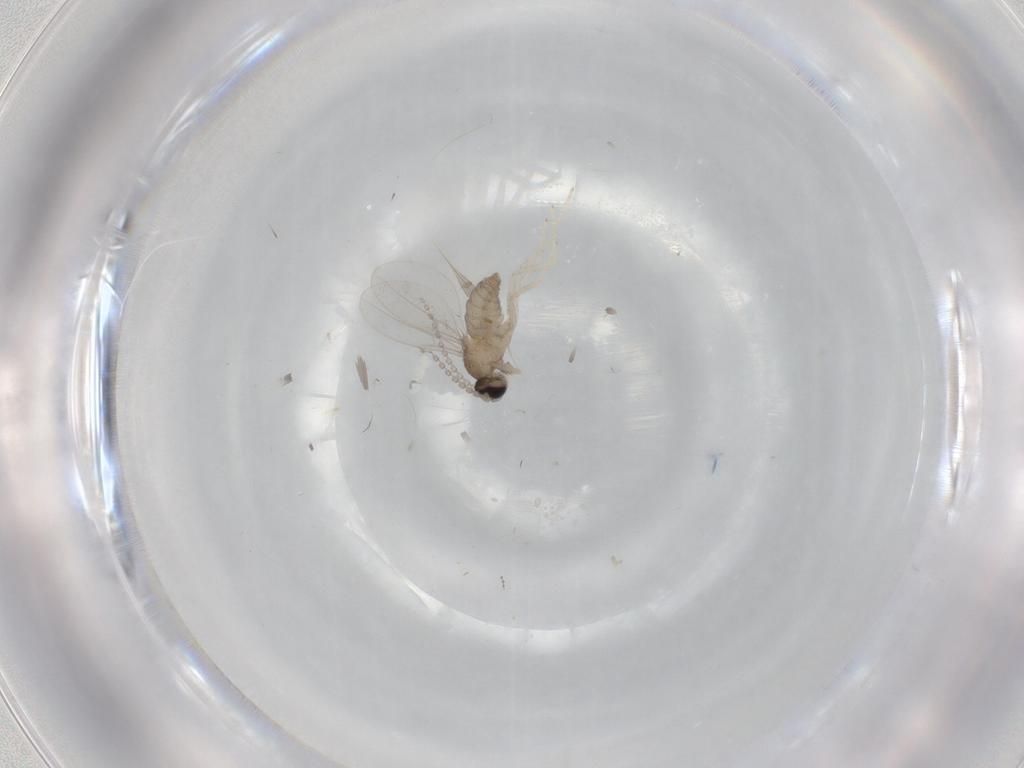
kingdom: Animalia
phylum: Arthropoda
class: Insecta
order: Diptera
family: Cecidomyiidae
